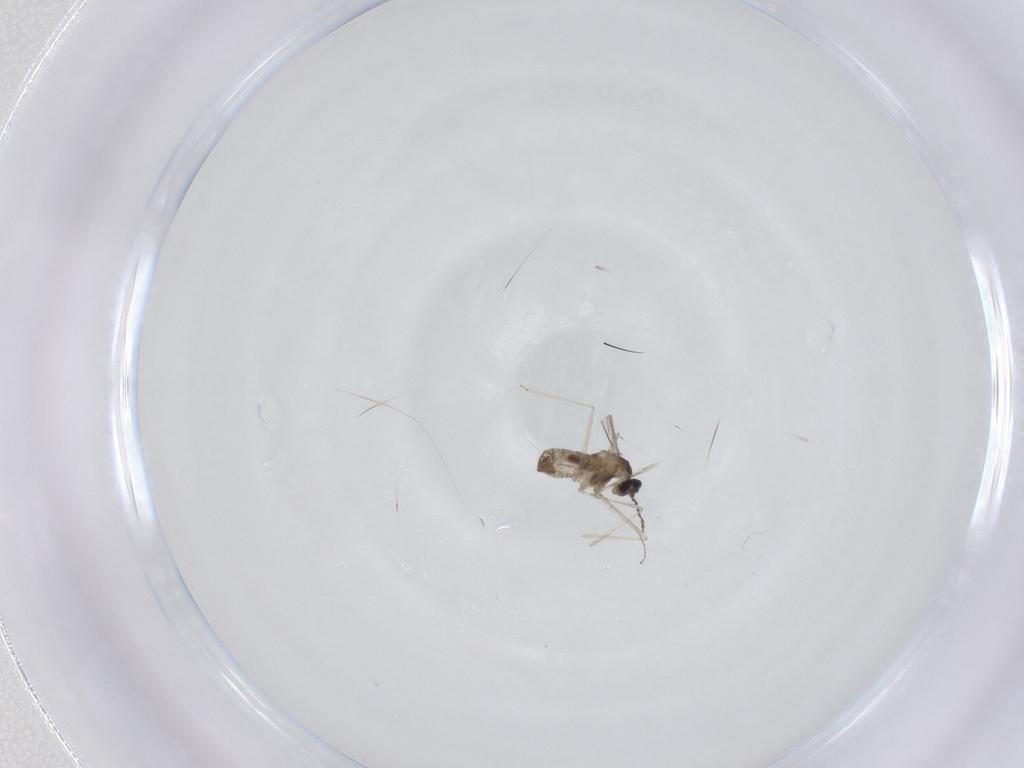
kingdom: Animalia
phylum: Arthropoda
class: Insecta
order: Diptera
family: Cecidomyiidae
